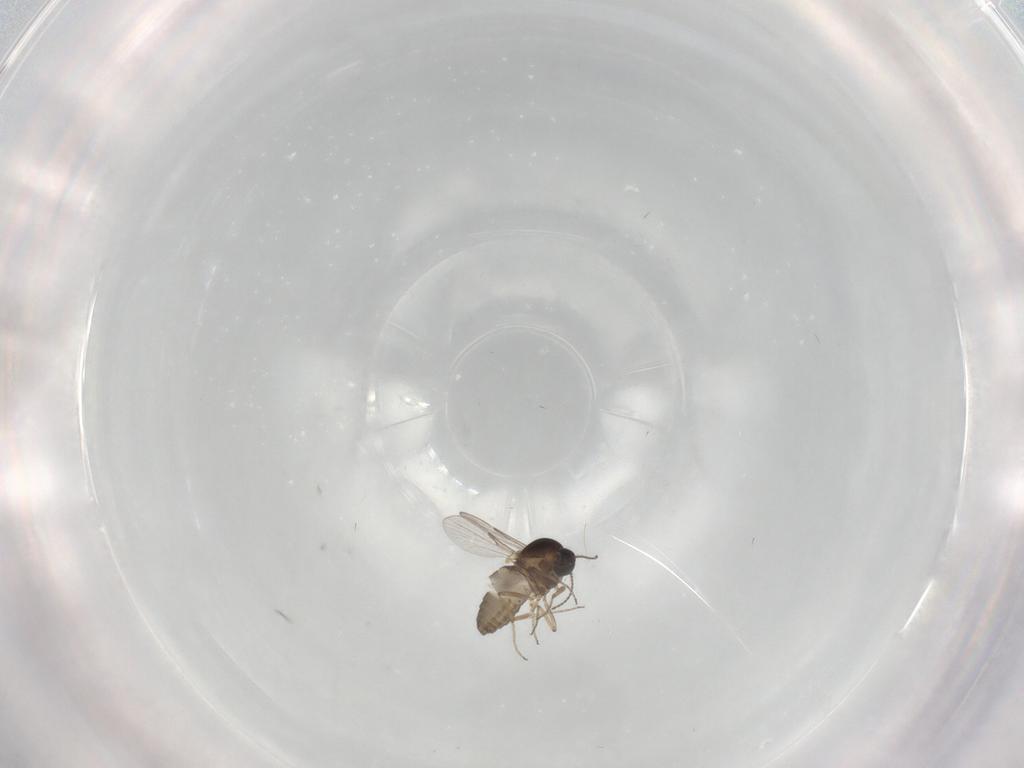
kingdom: Animalia
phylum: Arthropoda
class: Insecta
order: Diptera
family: Ceratopogonidae
